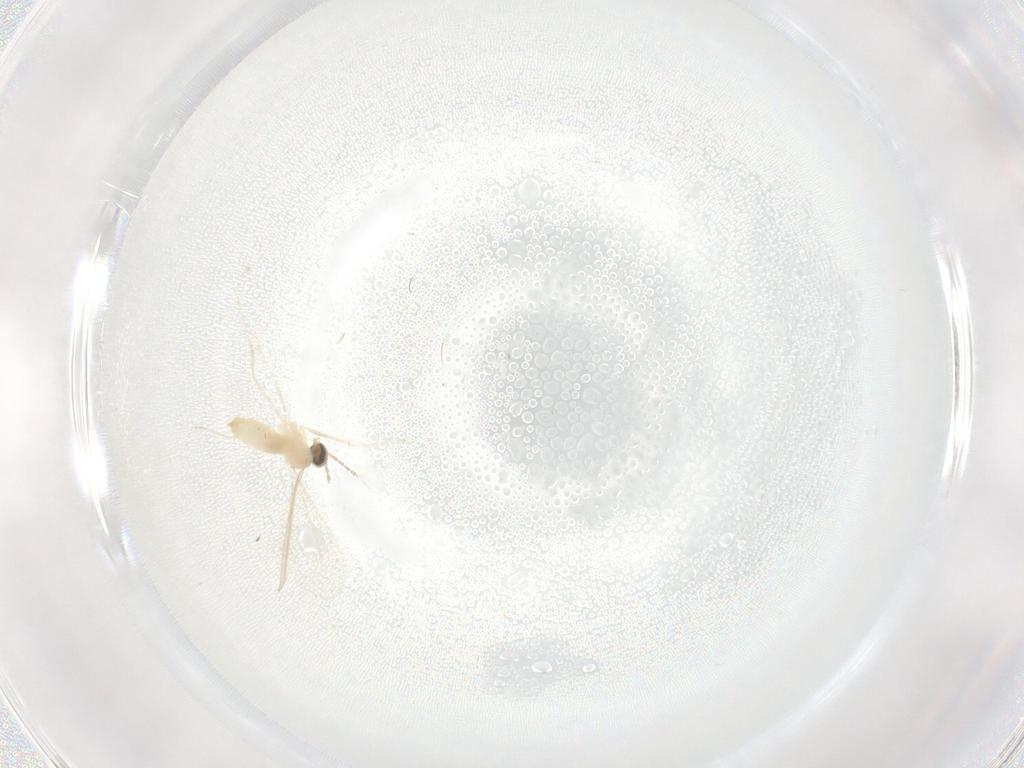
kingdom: Animalia
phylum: Arthropoda
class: Insecta
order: Diptera
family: Cecidomyiidae
